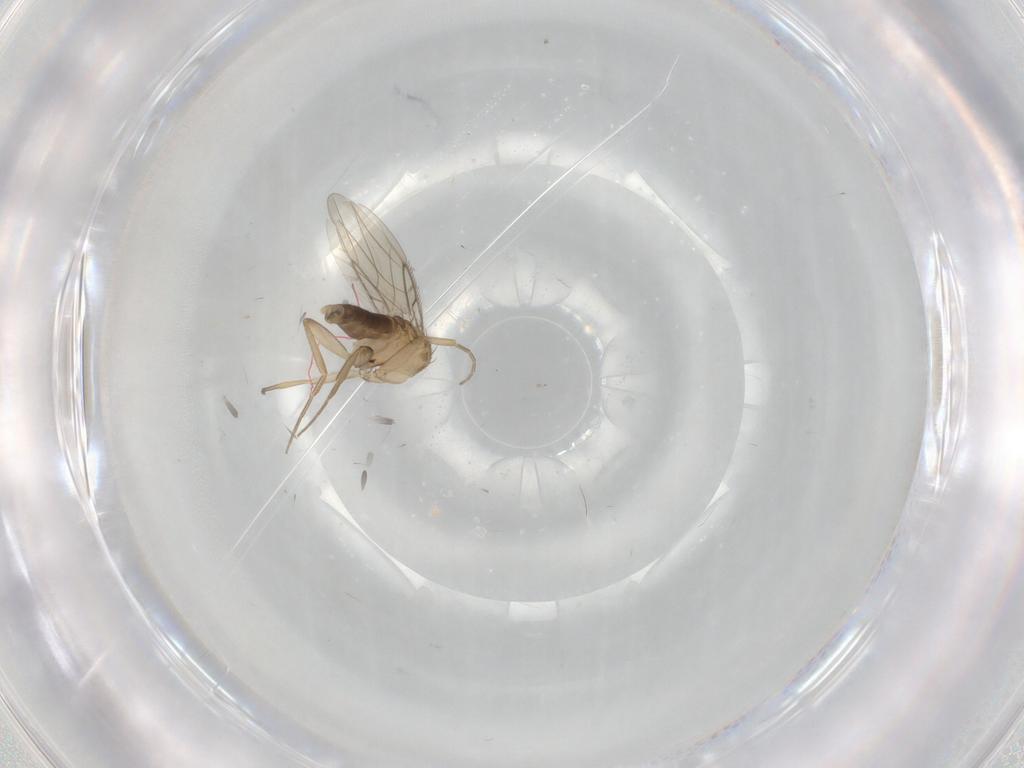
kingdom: Animalia
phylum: Arthropoda
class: Insecta
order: Diptera
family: Phoridae
